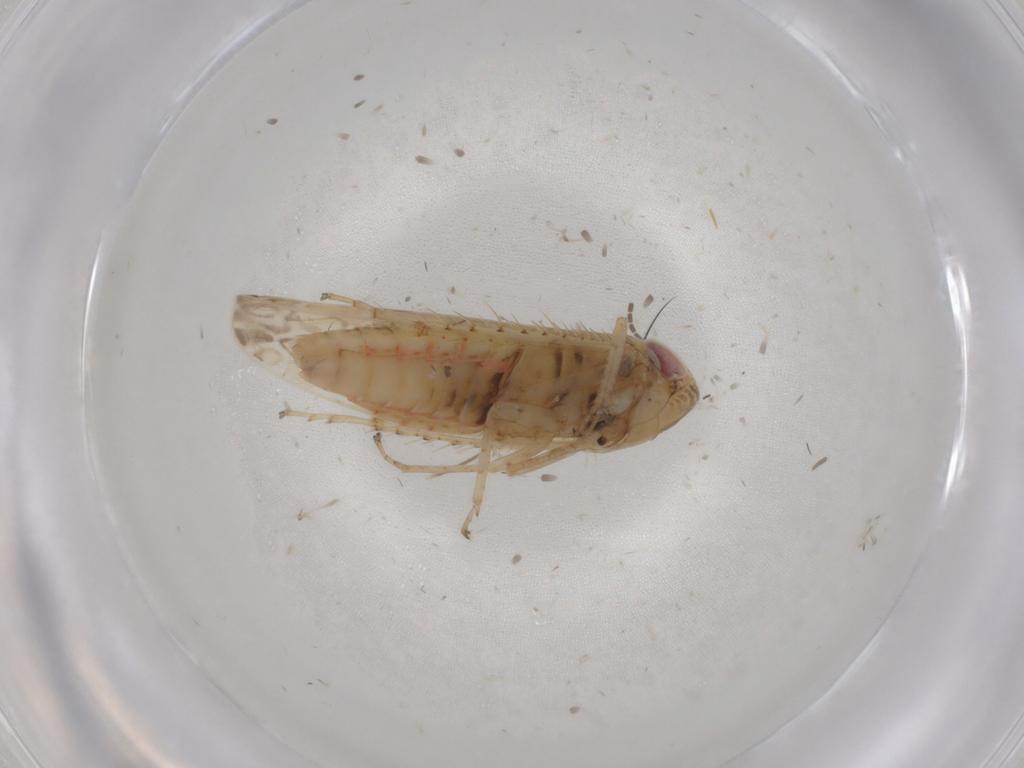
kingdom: Animalia
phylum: Arthropoda
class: Insecta
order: Hemiptera
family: Cicadellidae
